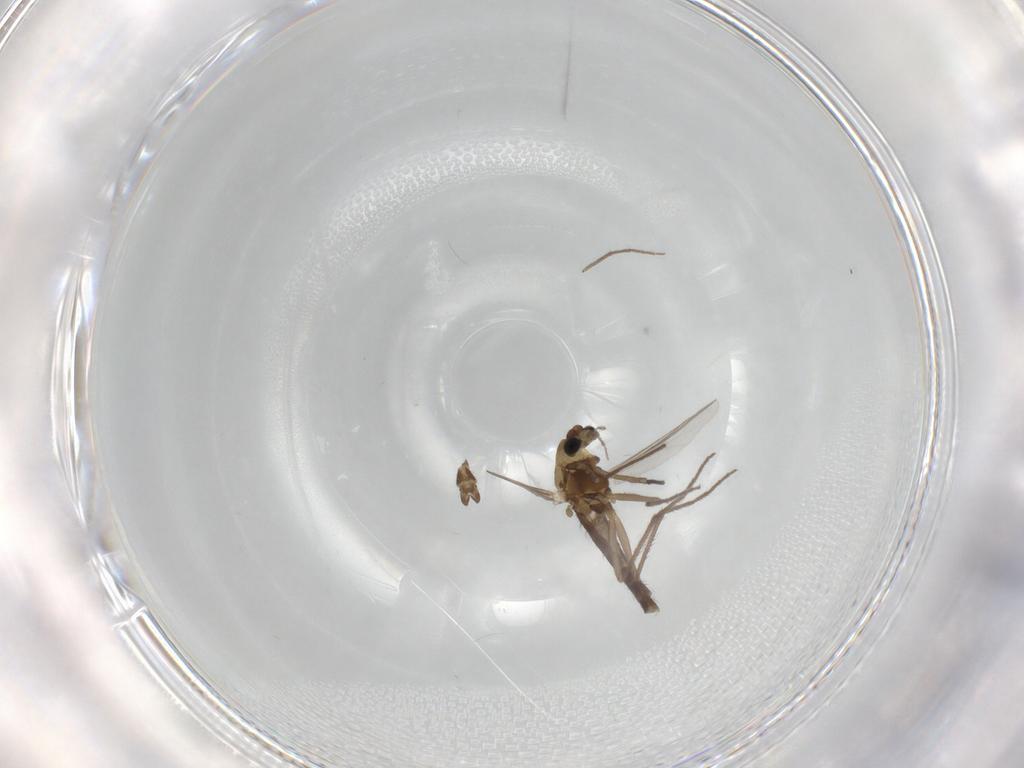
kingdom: Animalia
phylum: Arthropoda
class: Insecta
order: Diptera
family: Chironomidae
